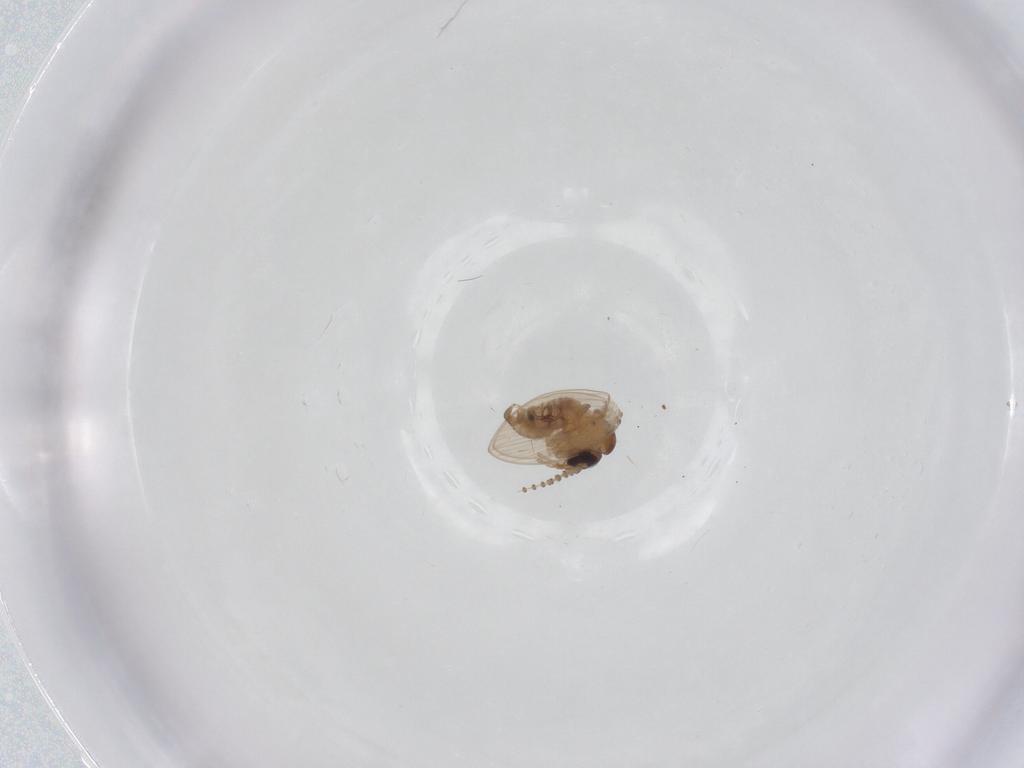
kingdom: Animalia
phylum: Arthropoda
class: Insecta
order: Diptera
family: Psychodidae
